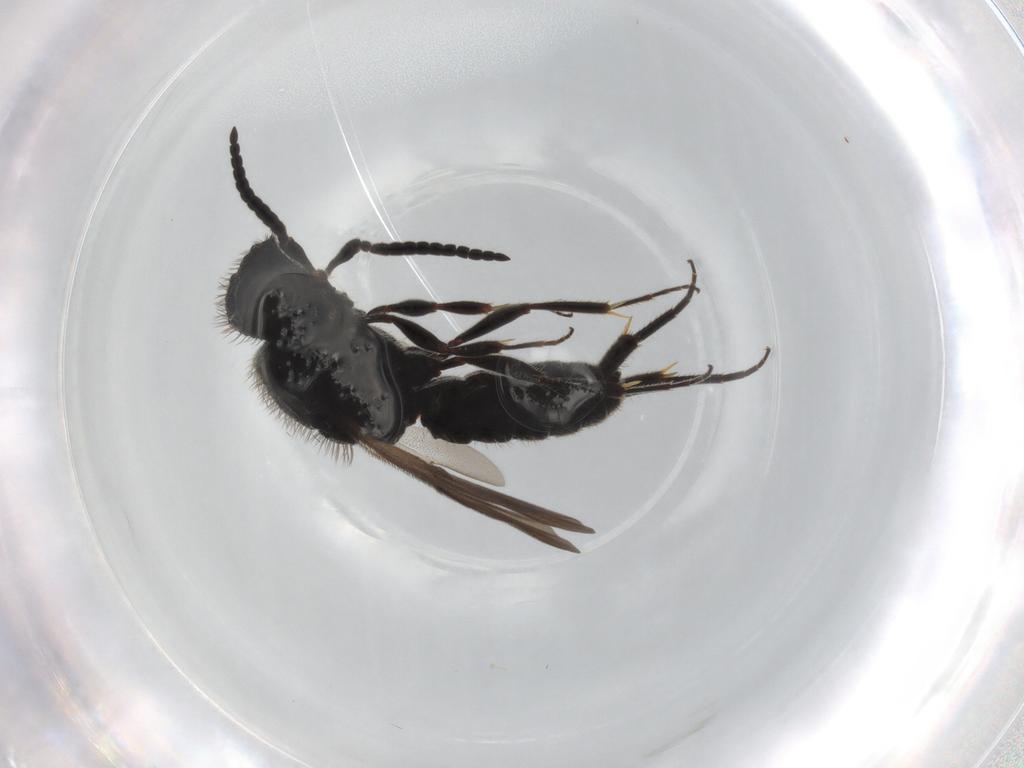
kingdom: Animalia
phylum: Arthropoda
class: Insecta
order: Hymenoptera
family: Scelionidae
